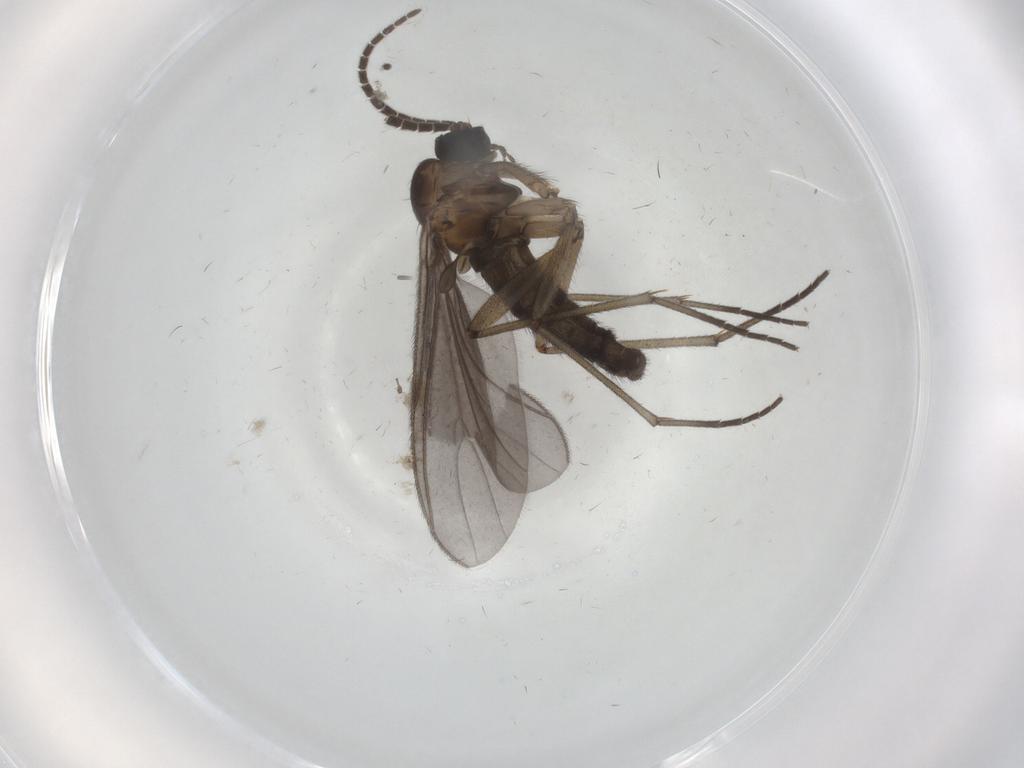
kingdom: Animalia
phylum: Arthropoda
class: Insecta
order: Diptera
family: Sciaridae
